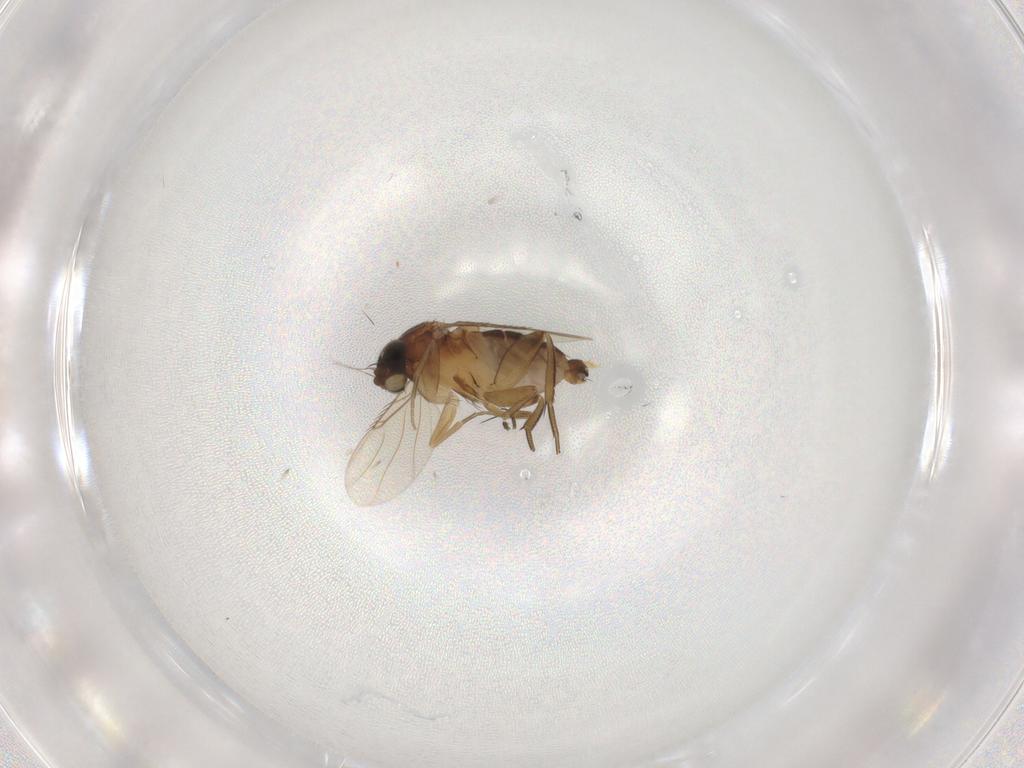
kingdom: Animalia
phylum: Arthropoda
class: Insecta
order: Diptera
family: Phoridae
